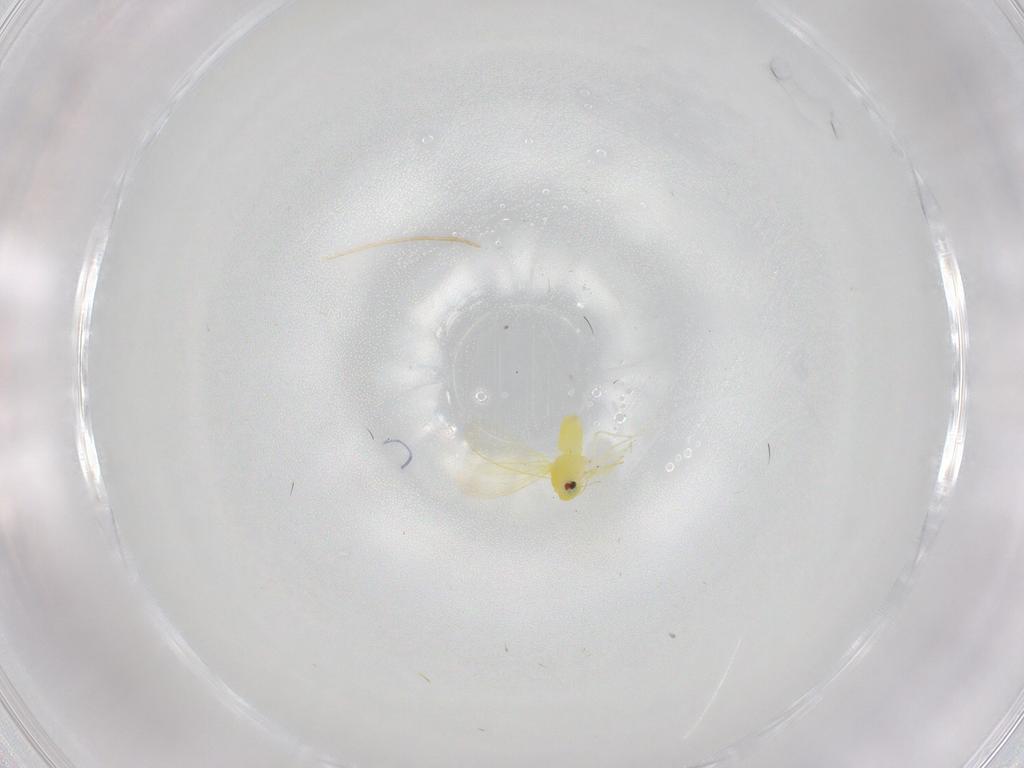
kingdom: Animalia
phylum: Arthropoda
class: Insecta
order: Hemiptera
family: Aleyrodidae
